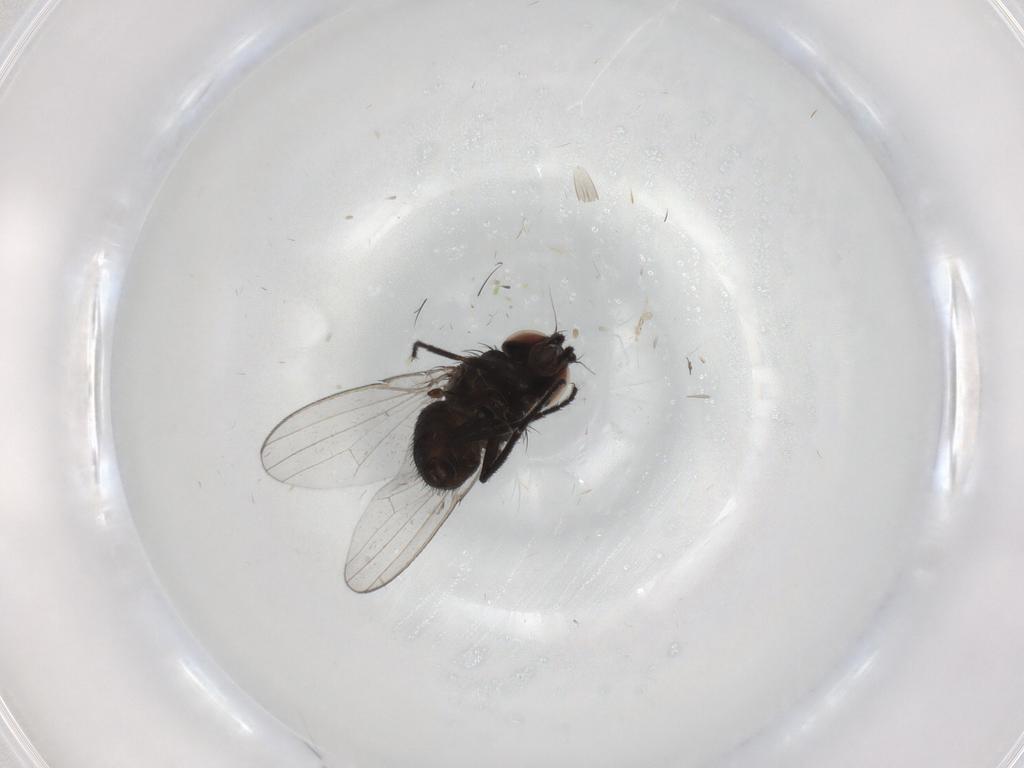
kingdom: Animalia
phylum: Arthropoda
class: Insecta
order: Diptera
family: Milichiidae
